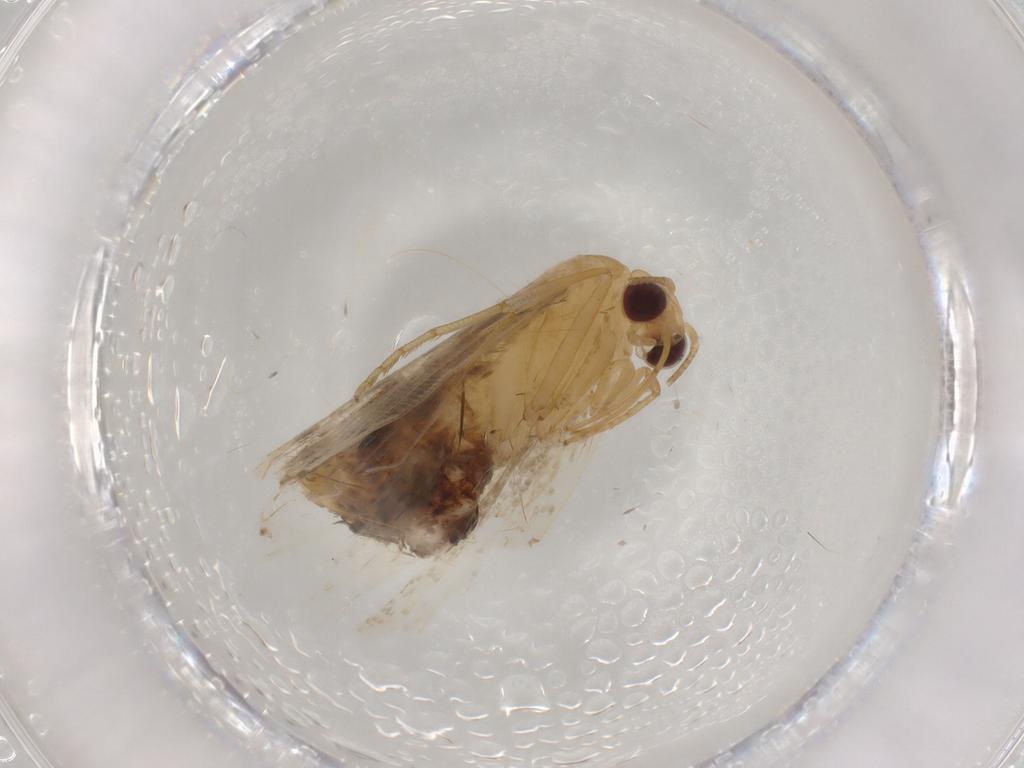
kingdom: Animalia
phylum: Arthropoda
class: Insecta
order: Lepidoptera
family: Erebidae
